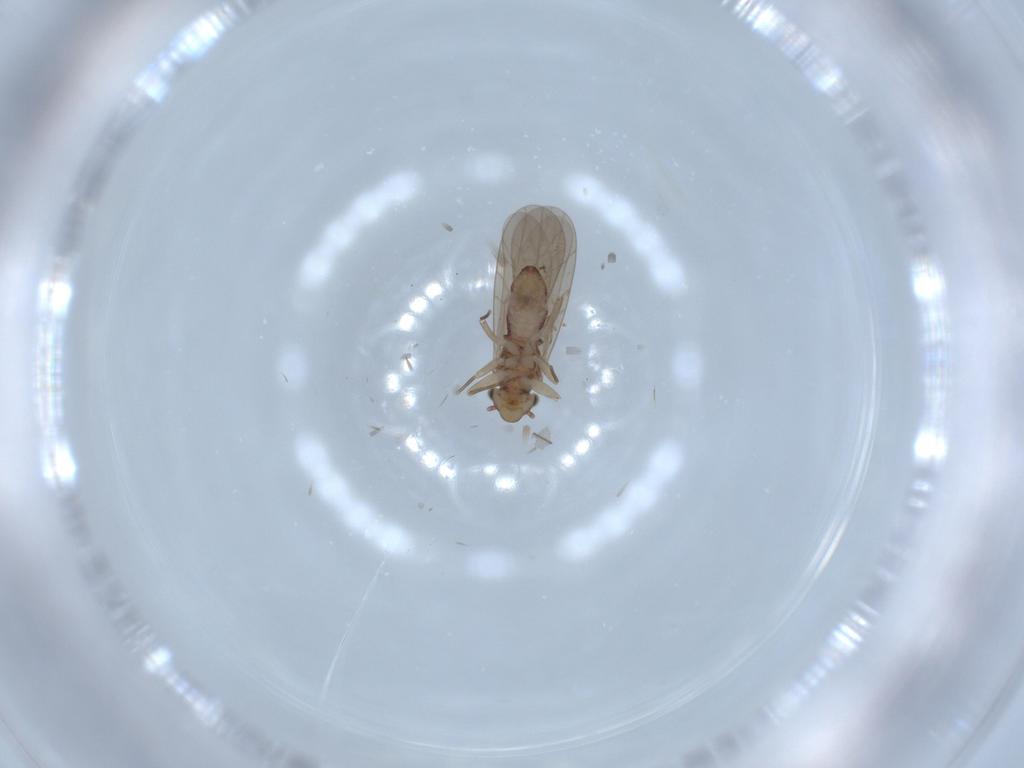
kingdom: Animalia
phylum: Arthropoda
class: Insecta
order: Psocodea
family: Lepidopsocidae
